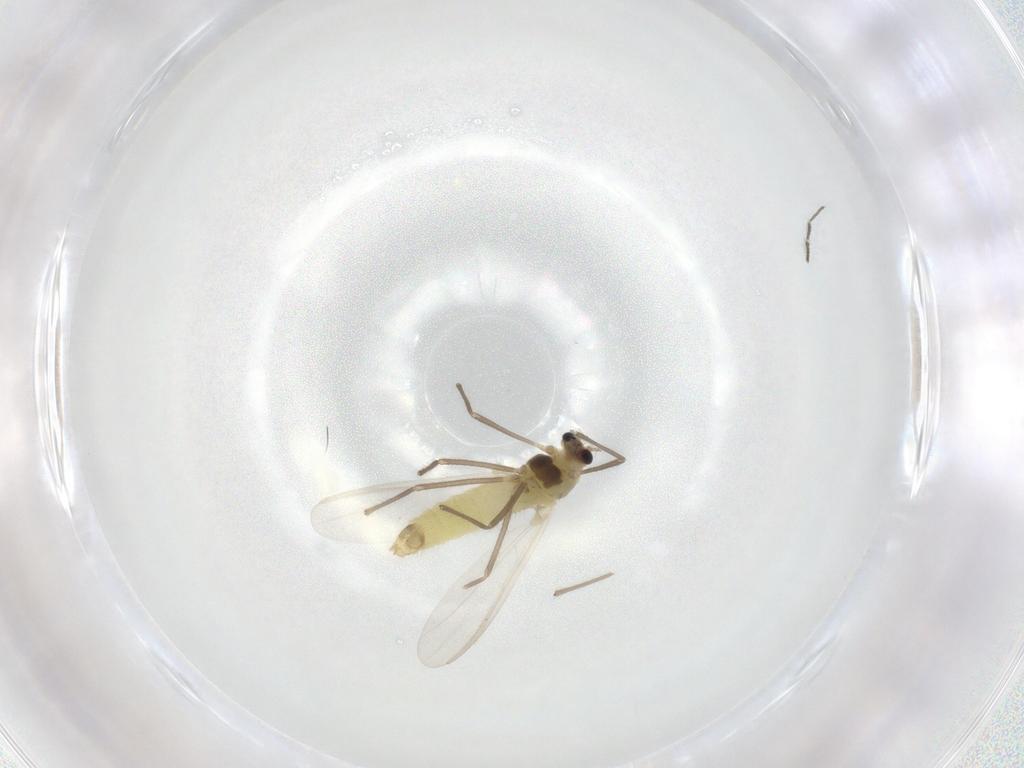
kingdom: Animalia
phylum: Arthropoda
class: Insecta
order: Diptera
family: Chironomidae
